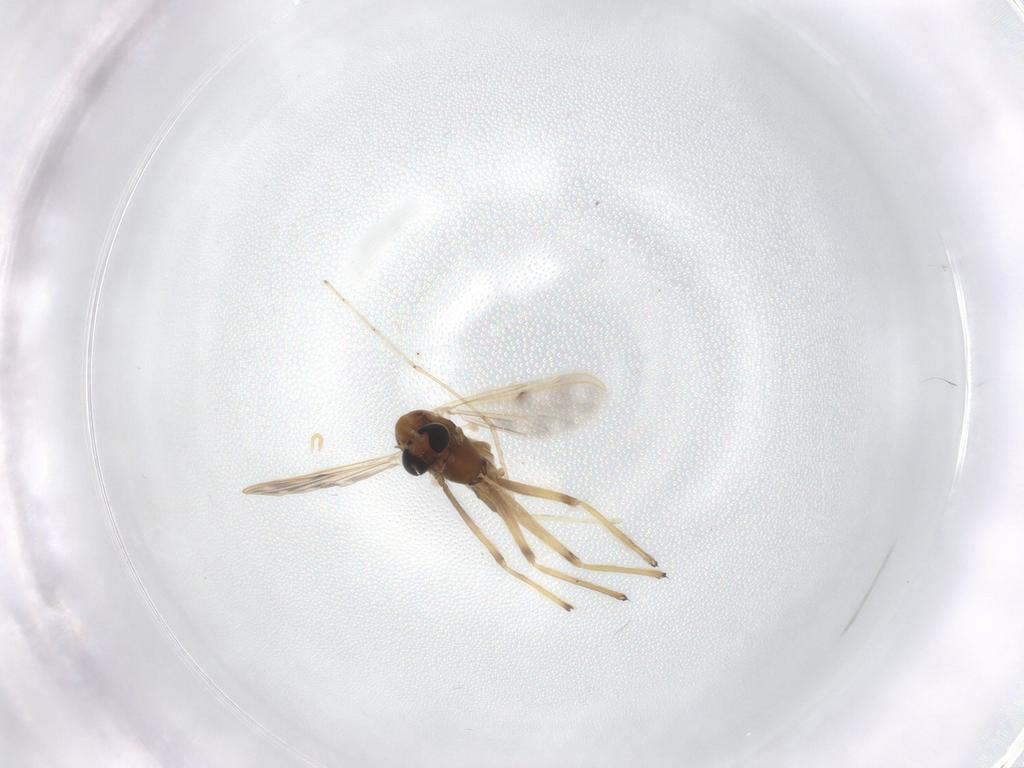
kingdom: Animalia
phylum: Arthropoda
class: Insecta
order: Diptera
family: Chironomidae
